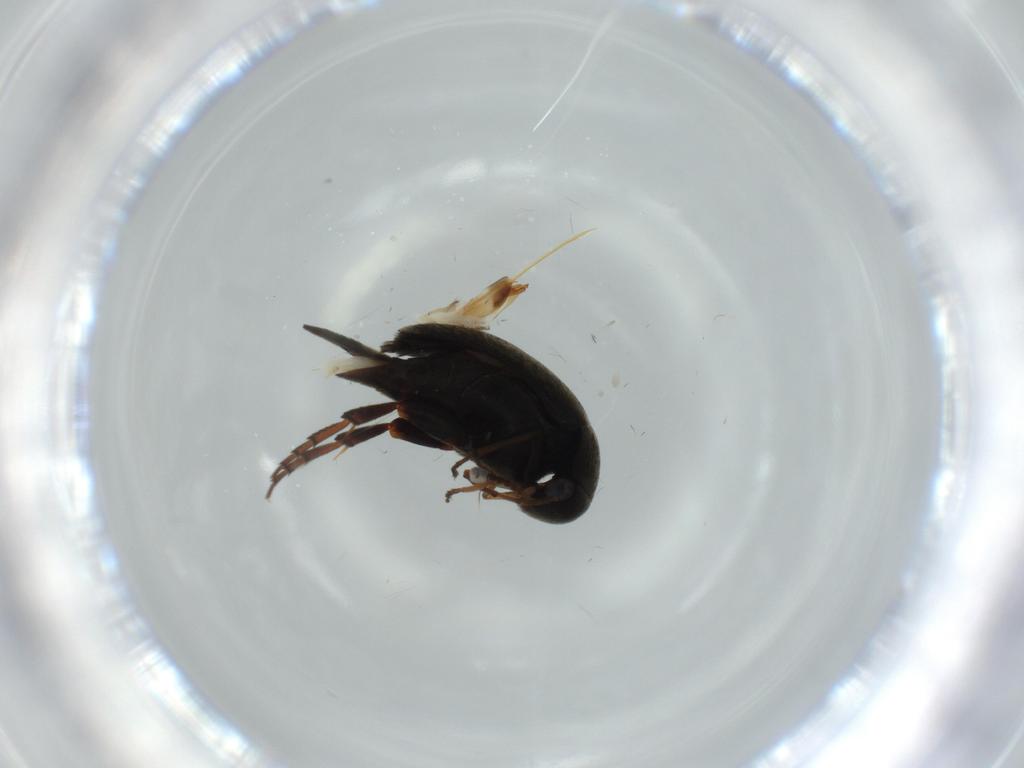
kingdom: Animalia
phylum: Arthropoda
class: Insecta
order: Coleoptera
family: Mordellidae
